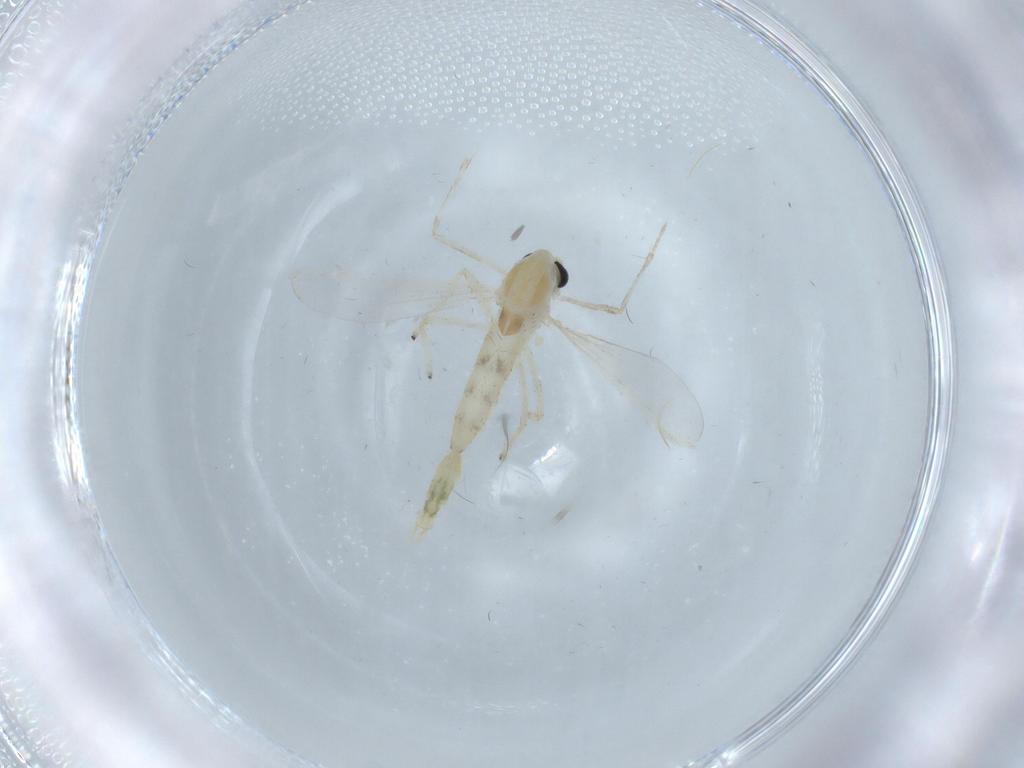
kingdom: Animalia
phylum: Arthropoda
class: Insecta
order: Diptera
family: Chironomidae
